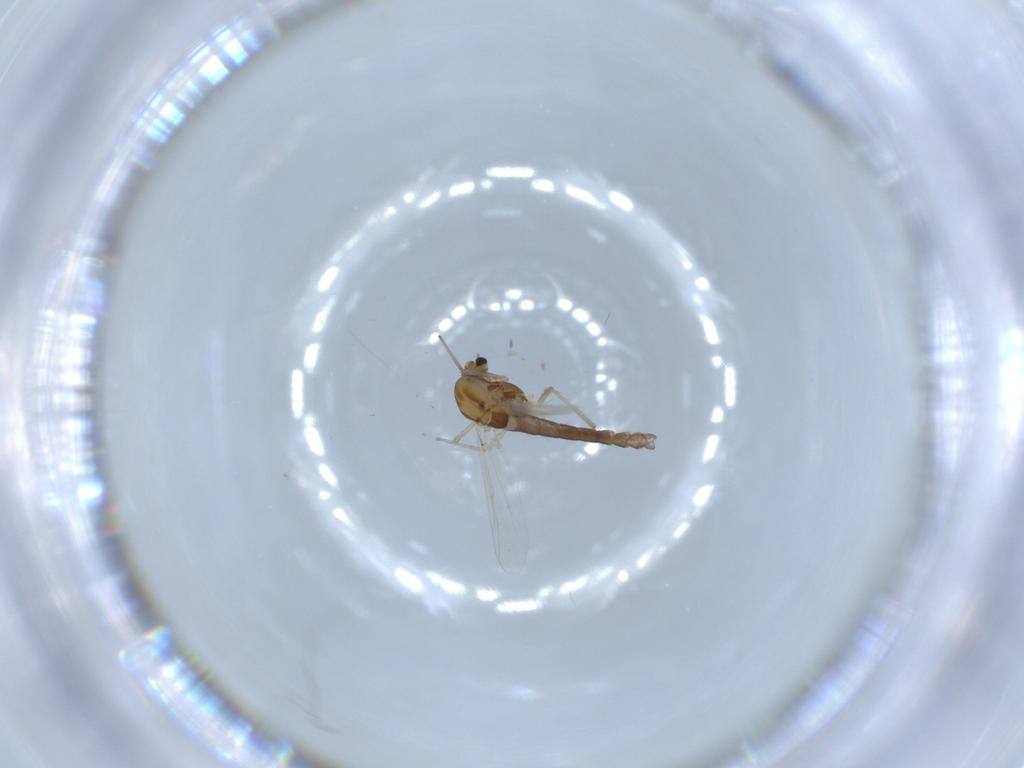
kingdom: Animalia
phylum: Arthropoda
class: Insecta
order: Diptera
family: Chironomidae
